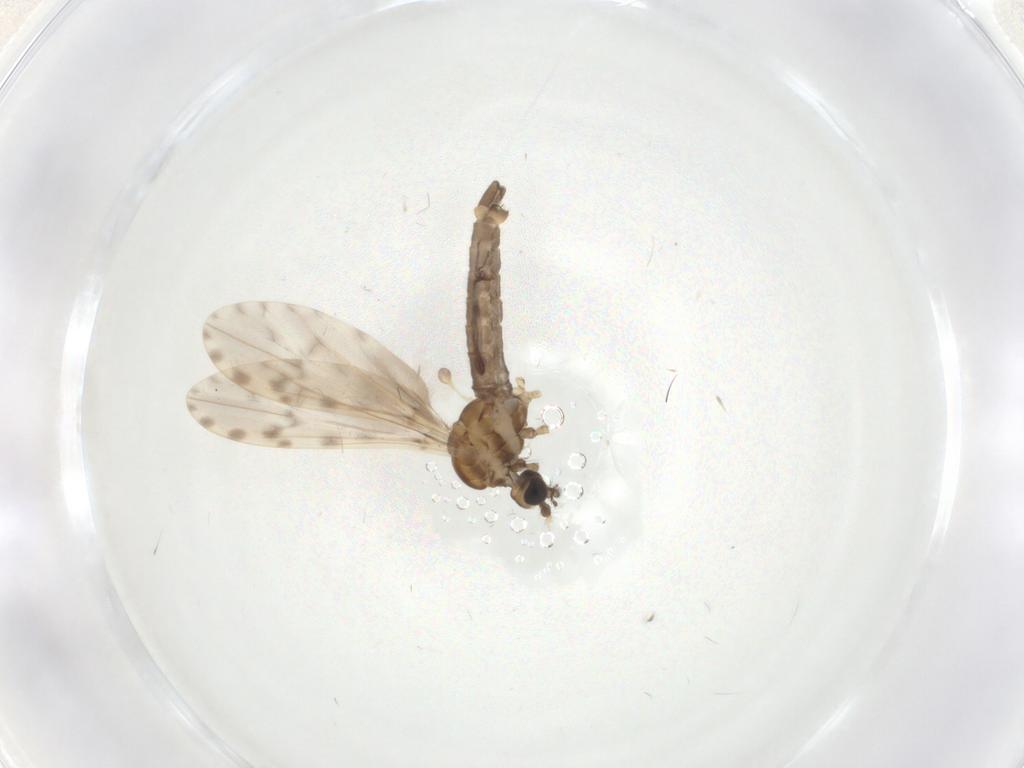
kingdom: Animalia
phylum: Arthropoda
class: Insecta
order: Diptera
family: Limoniidae
